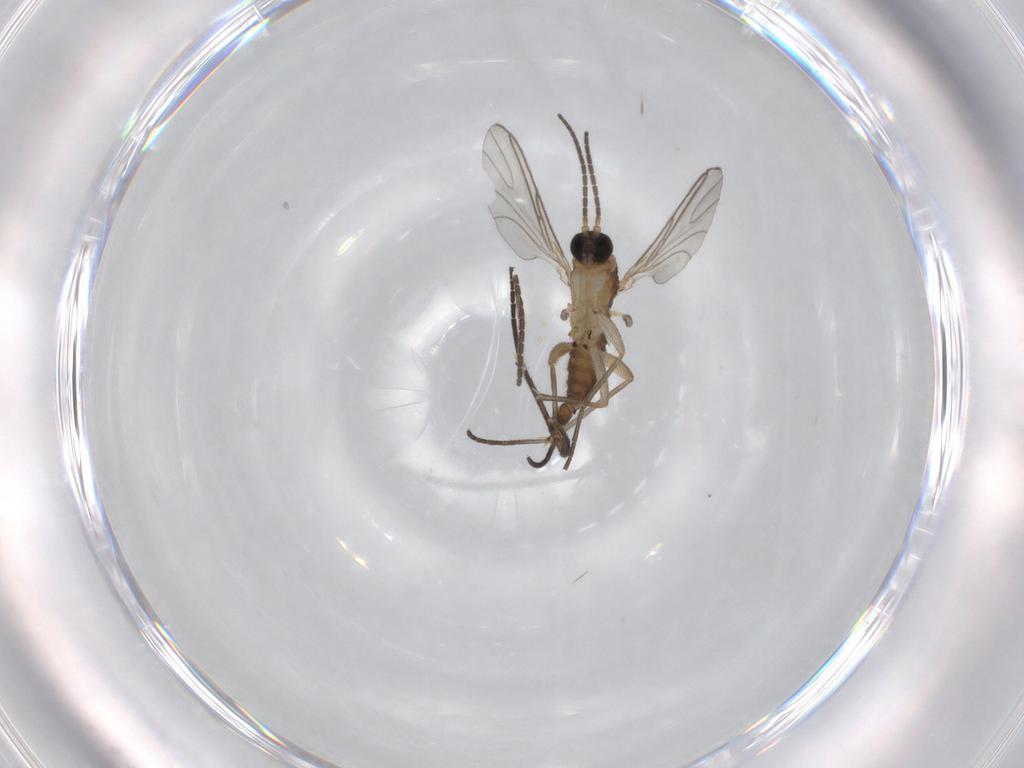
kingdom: Animalia
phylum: Arthropoda
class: Insecta
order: Diptera
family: Sciaridae
